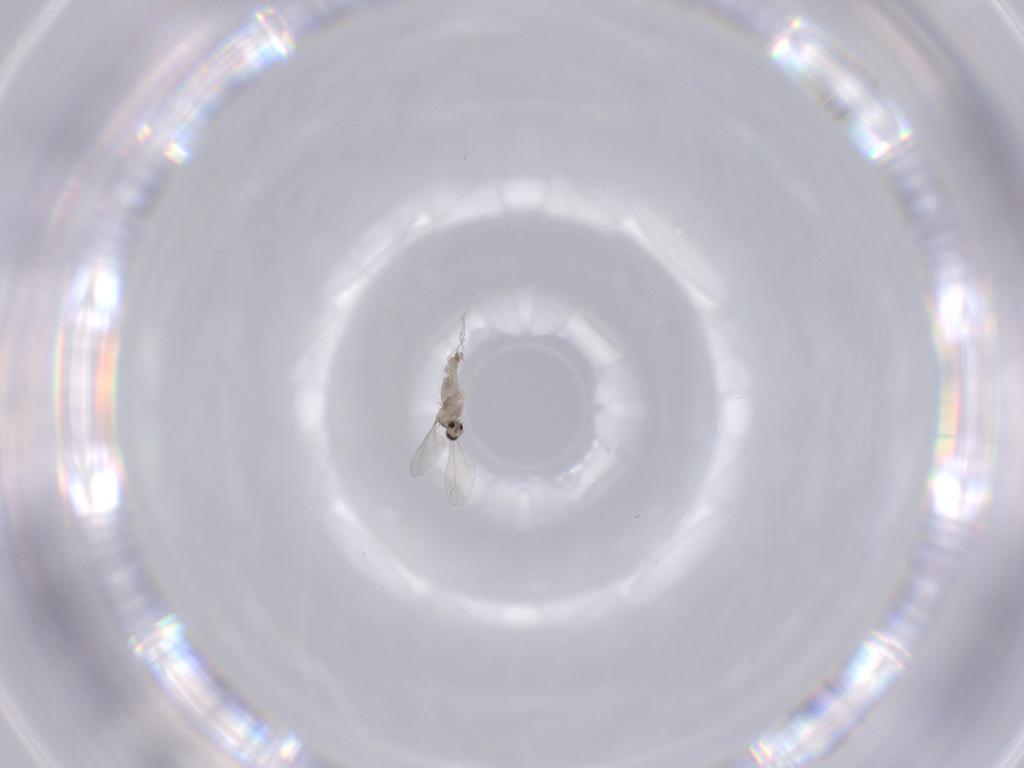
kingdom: Animalia
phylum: Arthropoda
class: Insecta
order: Diptera
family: Cecidomyiidae
